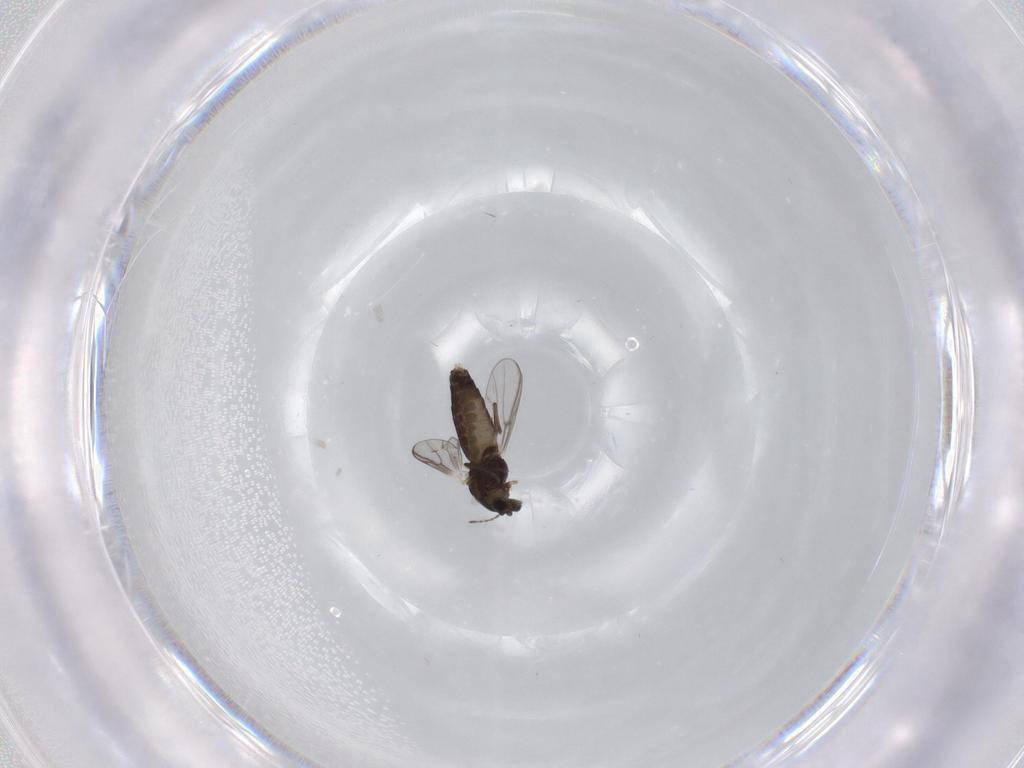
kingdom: Animalia
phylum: Arthropoda
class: Insecta
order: Diptera
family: Chironomidae
